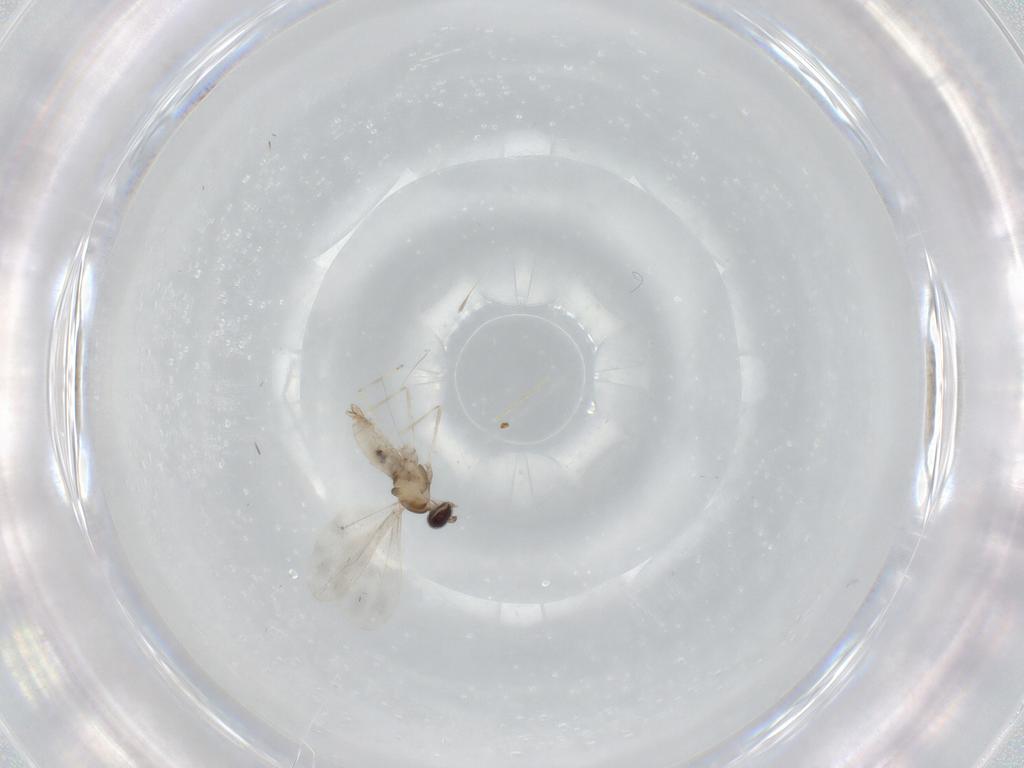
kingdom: Animalia
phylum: Arthropoda
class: Insecta
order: Diptera
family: Cecidomyiidae
